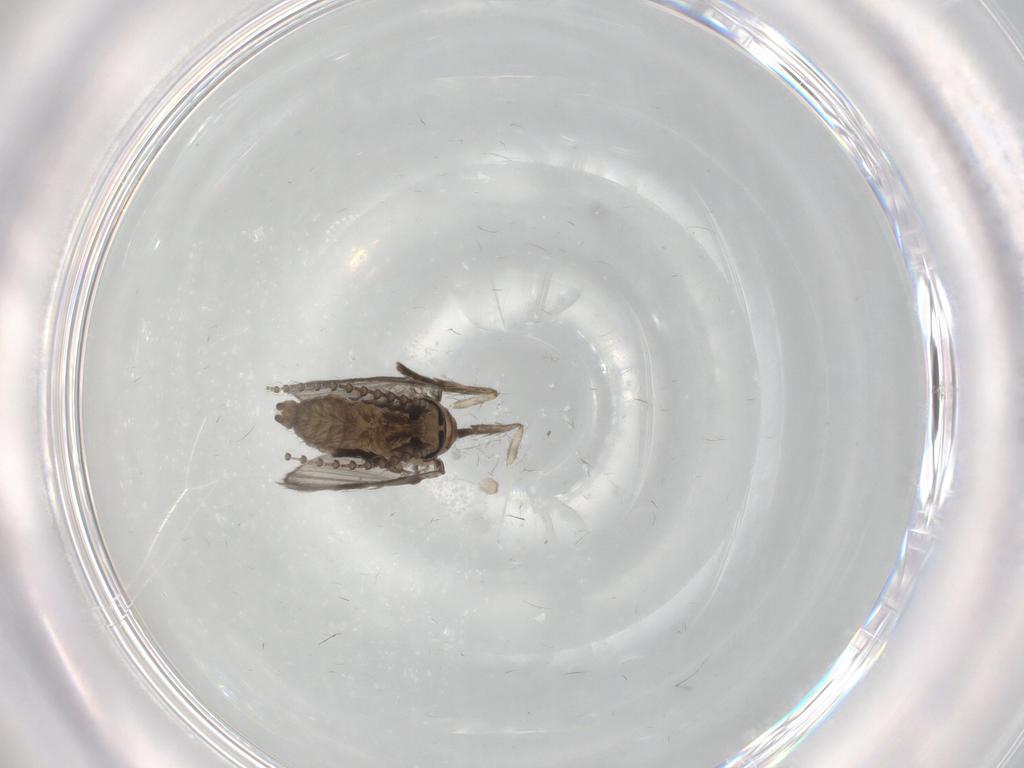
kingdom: Animalia
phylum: Arthropoda
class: Insecta
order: Diptera
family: Psychodidae
